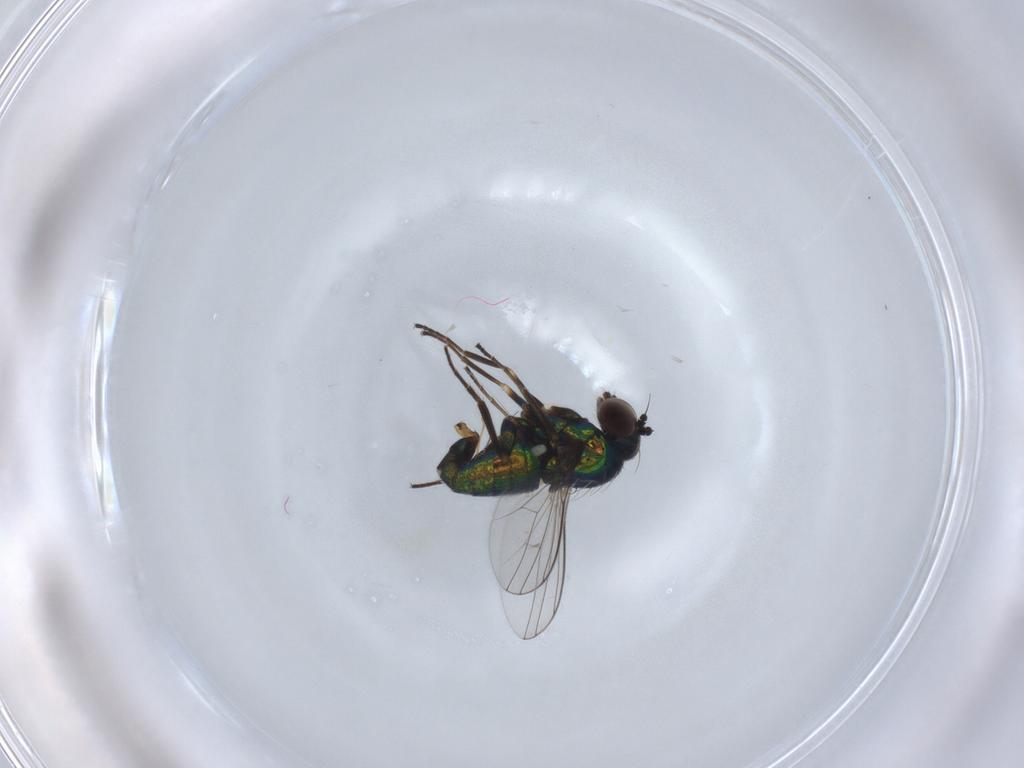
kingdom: Animalia
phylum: Arthropoda
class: Insecta
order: Diptera
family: Dolichopodidae
